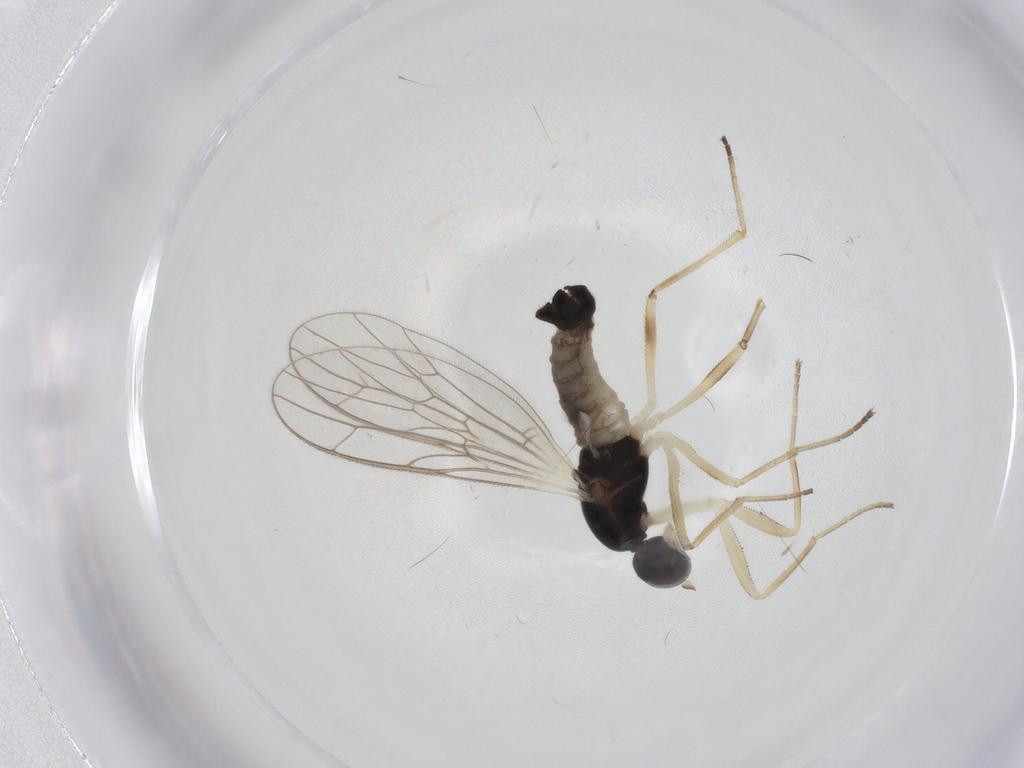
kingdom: Animalia
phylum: Arthropoda
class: Insecta
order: Diptera
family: Empididae
